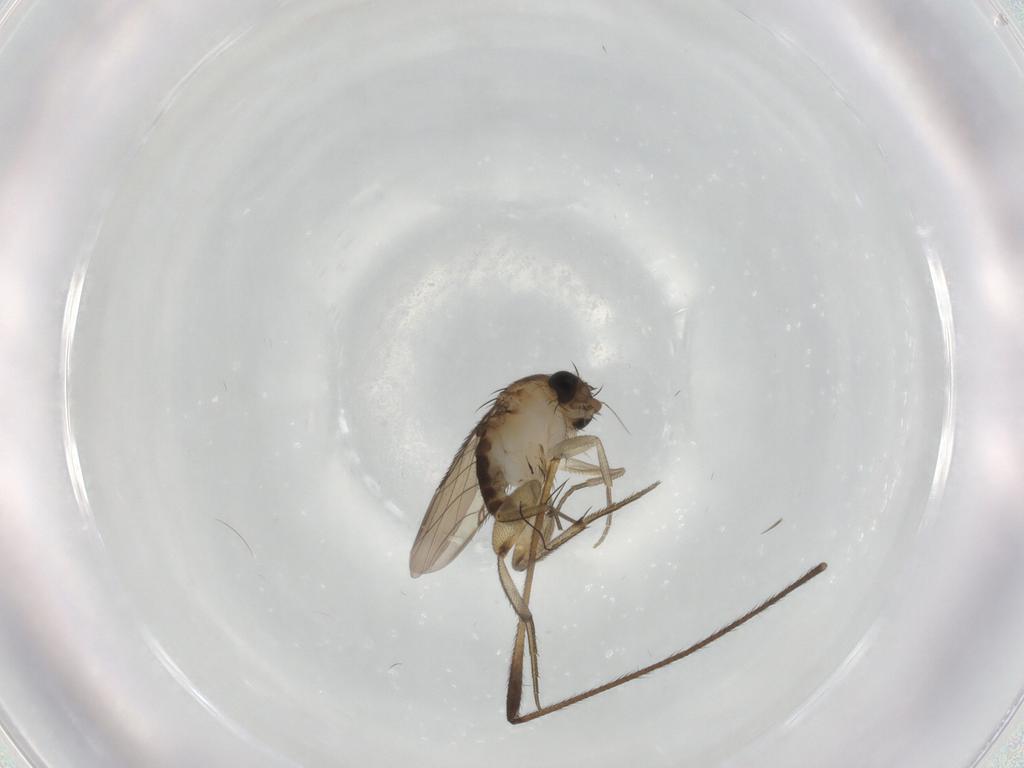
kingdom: Animalia
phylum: Arthropoda
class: Insecta
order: Diptera
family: Phoridae
